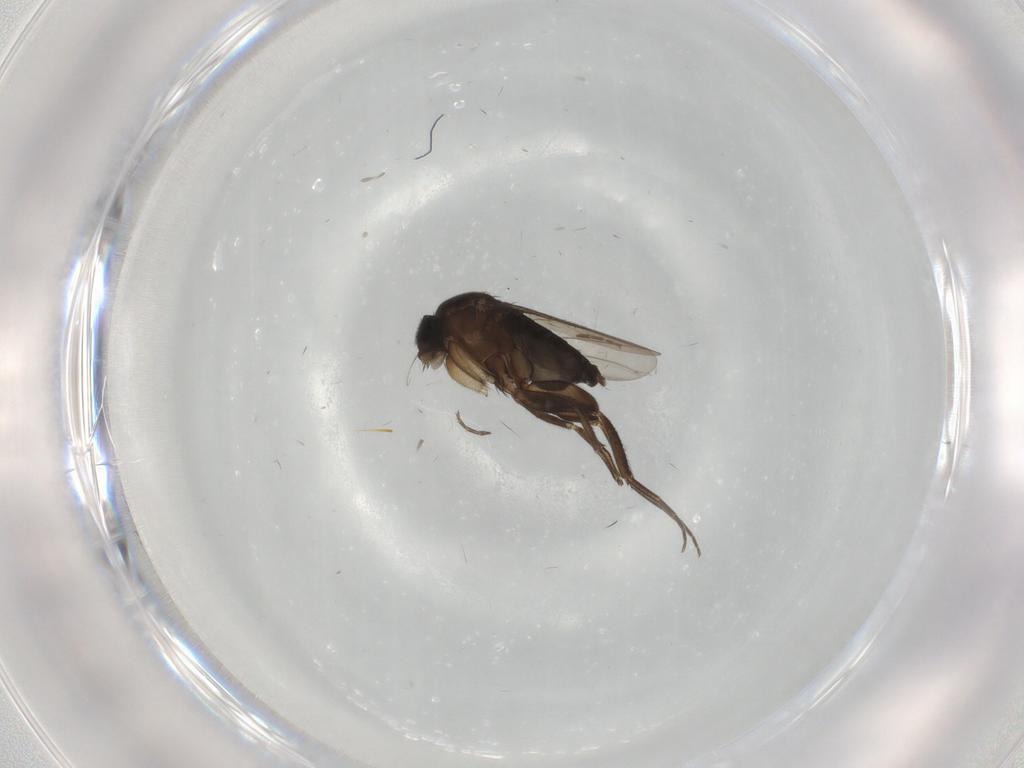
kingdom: Animalia
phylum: Arthropoda
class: Insecta
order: Diptera
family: Phoridae
